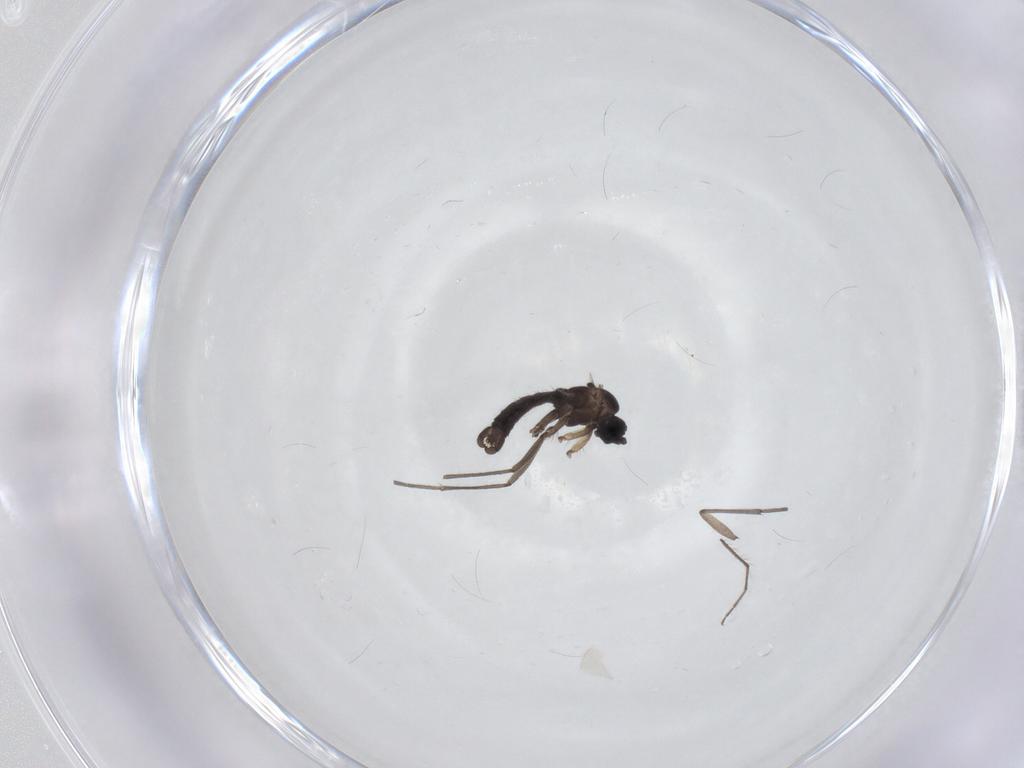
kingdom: Animalia
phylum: Arthropoda
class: Insecta
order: Diptera
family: Sciaridae
